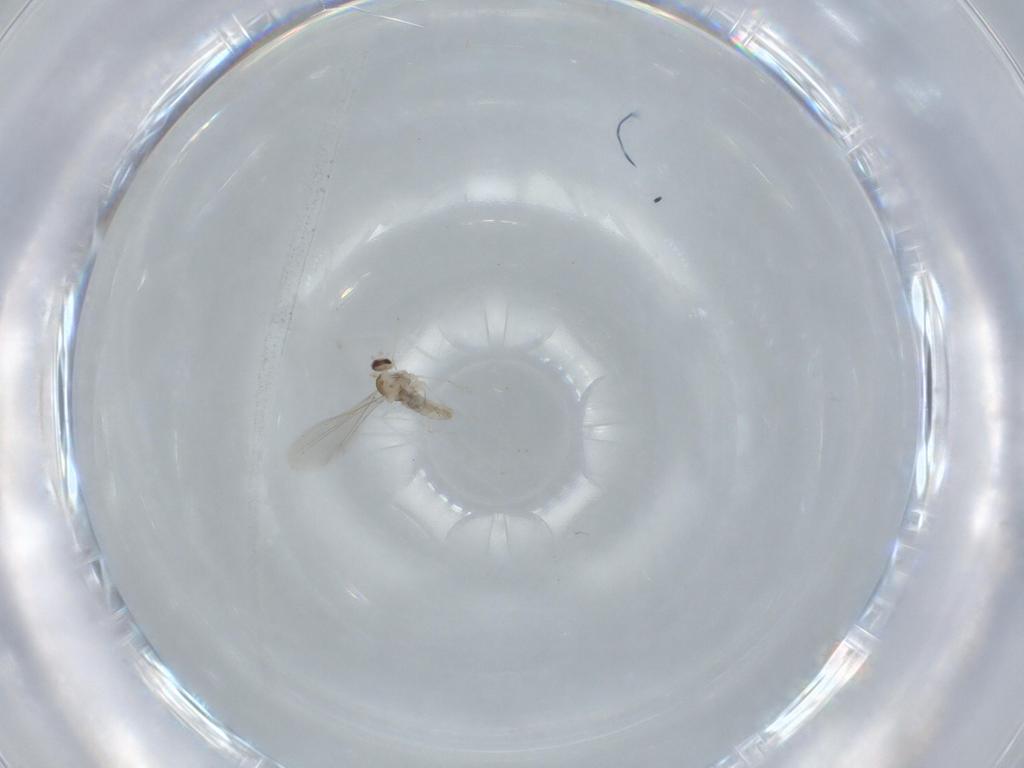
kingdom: Animalia
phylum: Arthropoda
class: Insecta
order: Diptera
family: Cecidomyiidae
